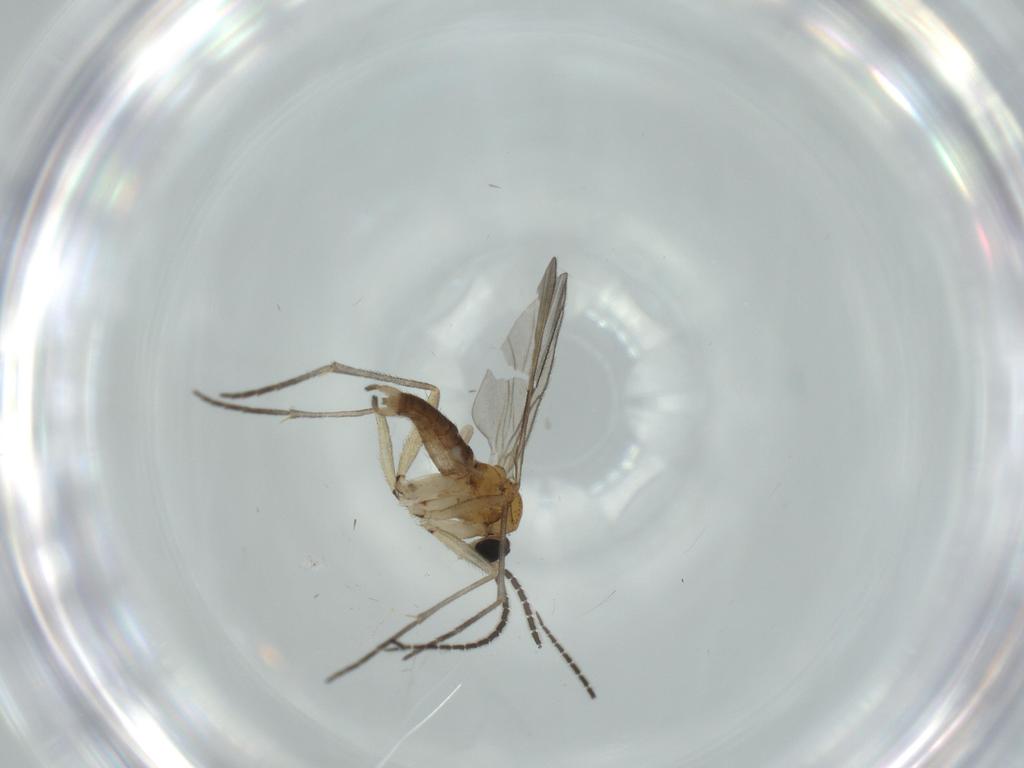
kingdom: Animalia
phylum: Arthropoda
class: Insecta
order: Diptera
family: Sciaridae
